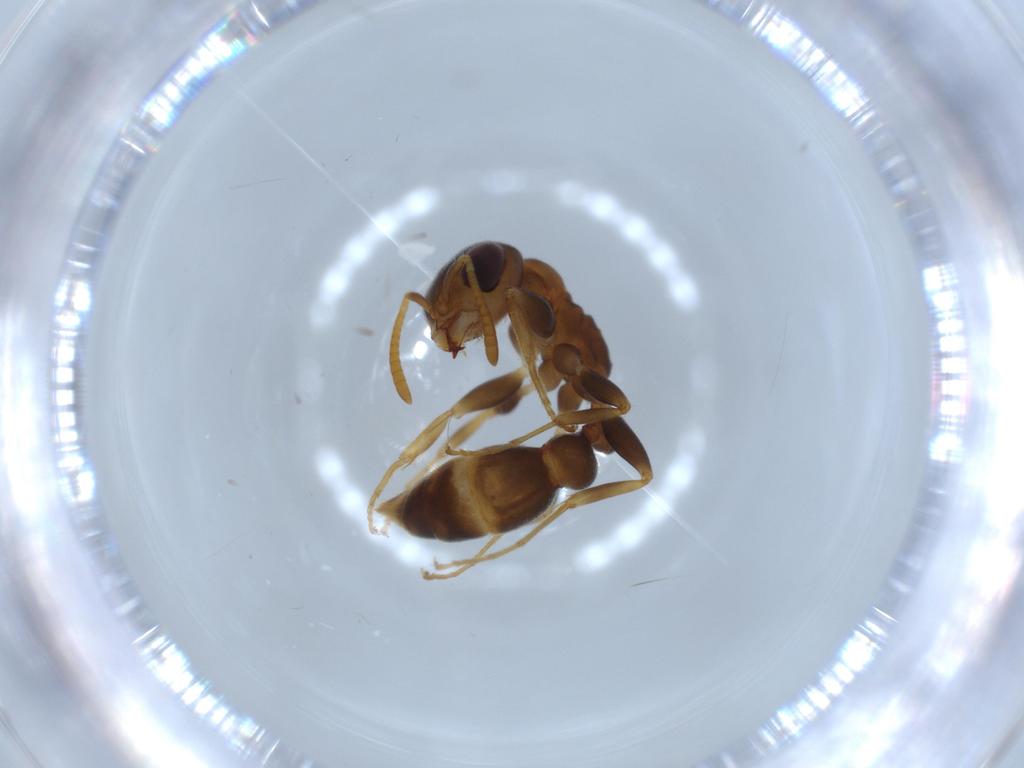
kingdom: Animalia
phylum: Arthropoda
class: Insecta
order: Hymenoptera
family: Formicidae
